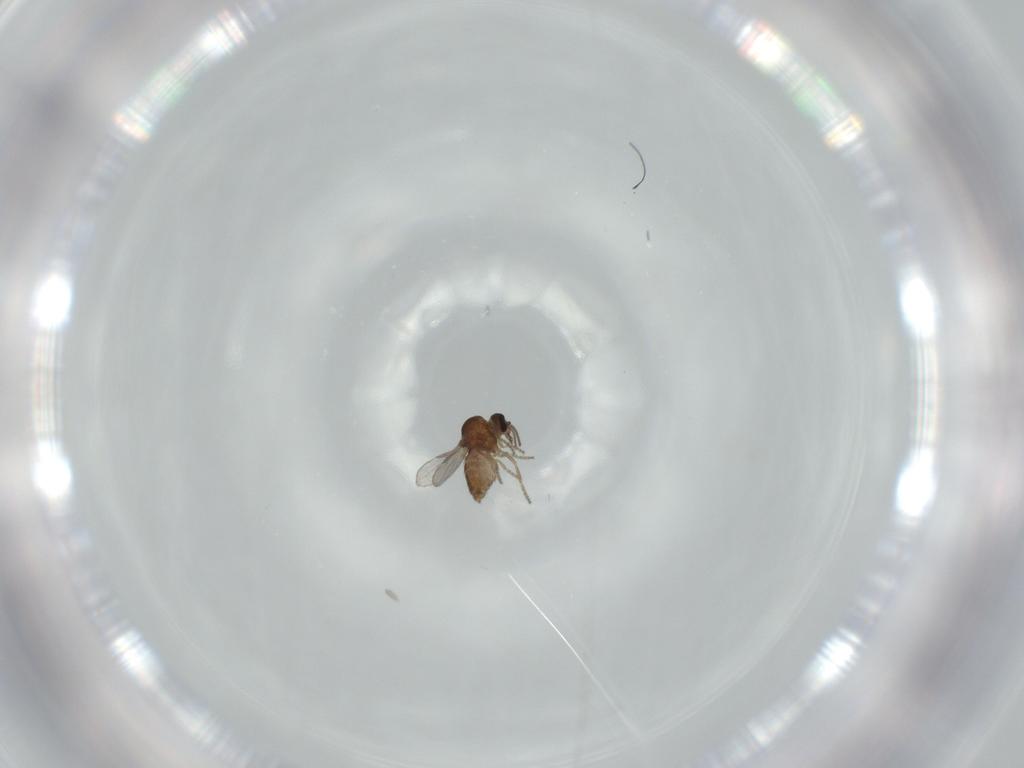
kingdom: Animalia
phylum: Arthropoda
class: Insecta
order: Diptera
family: Ceratopogonidae
